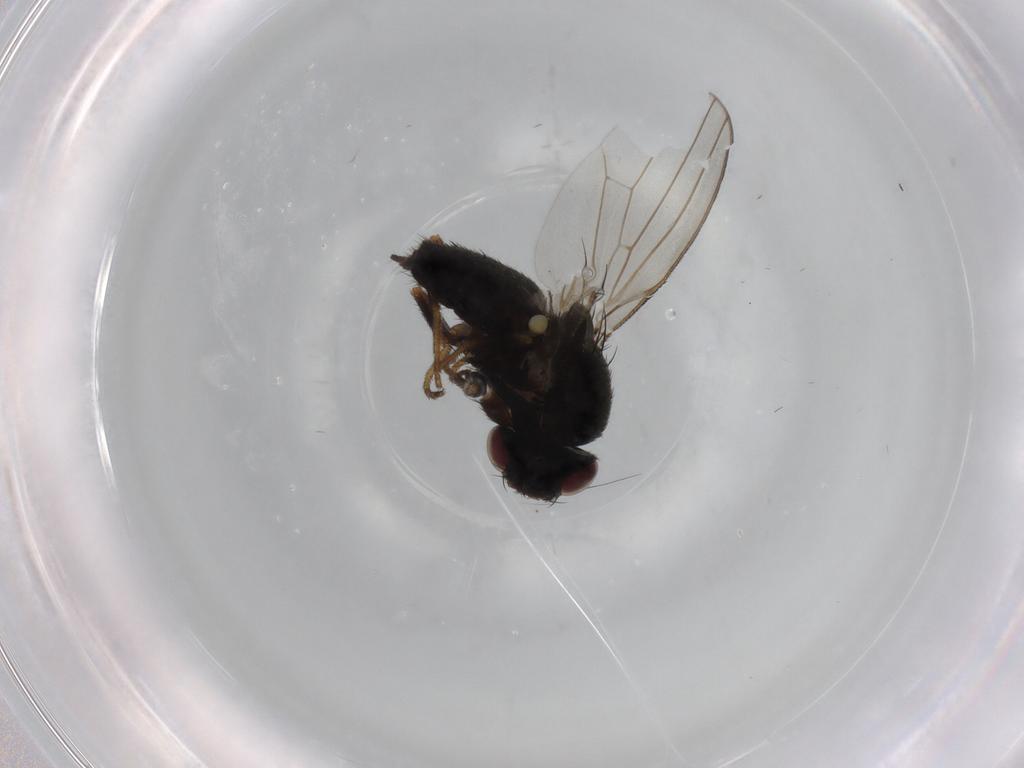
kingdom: Animalia
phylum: Arthropoda
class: Insecta
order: Diptera
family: Milichiidae
